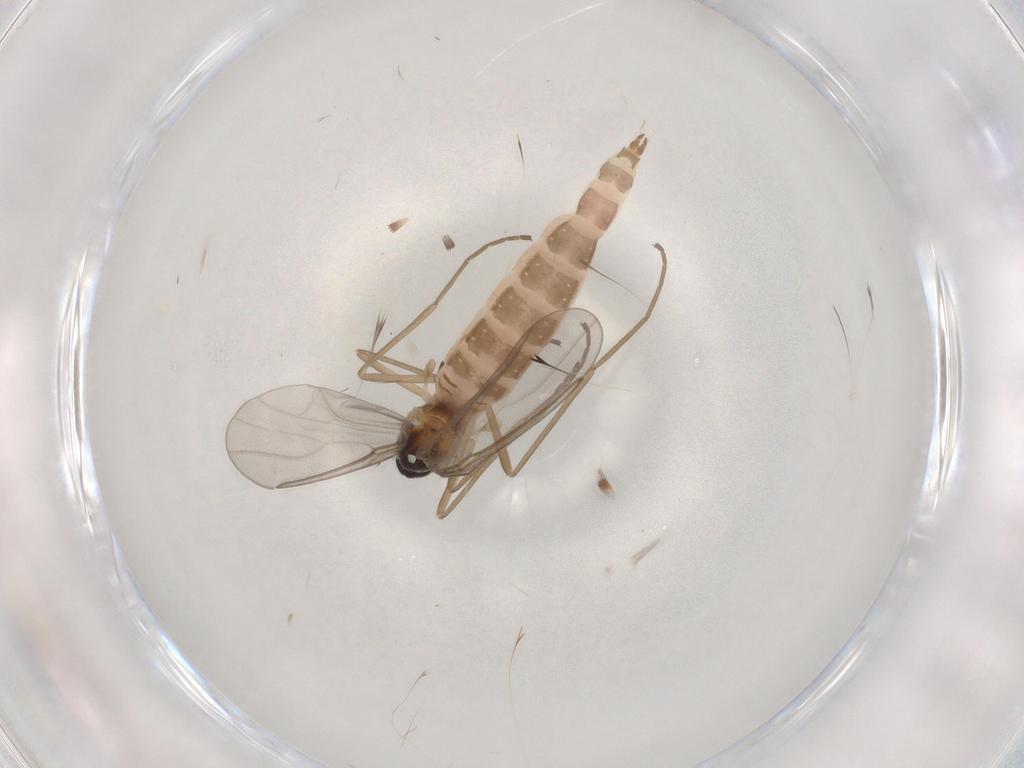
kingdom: Animalia
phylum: Arthropoda
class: Insecta
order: Diptera
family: Cecidomyiidae
